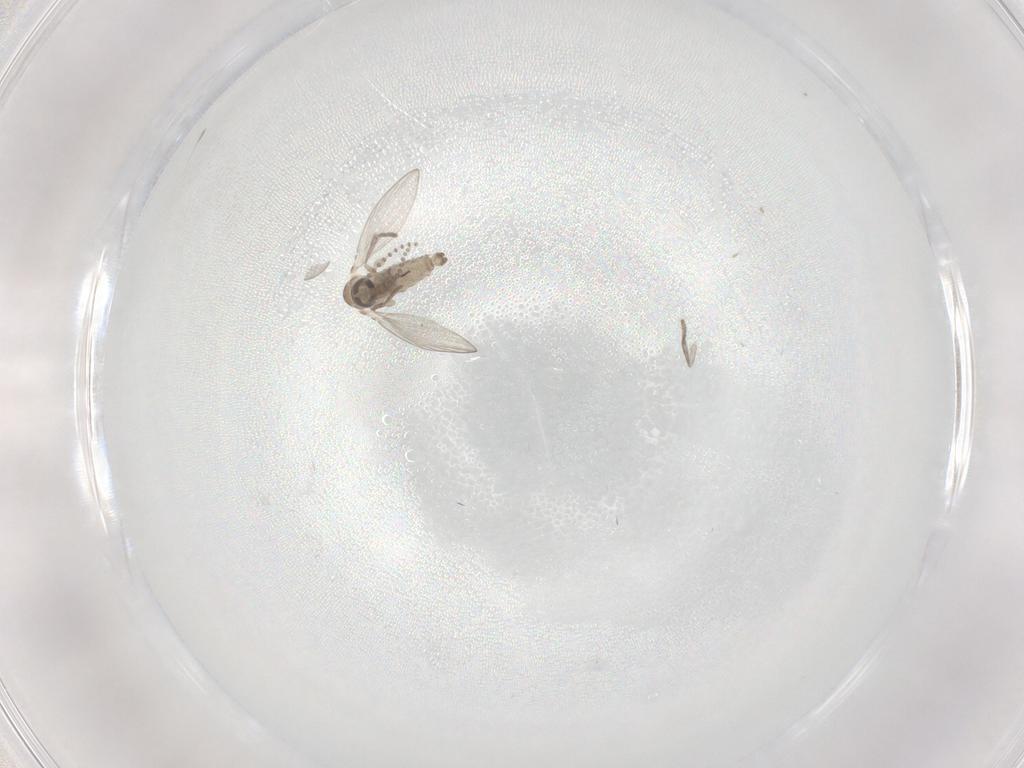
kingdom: Animalia
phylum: Arthropoda
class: Insecta
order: Diptera
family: Psychodidae
